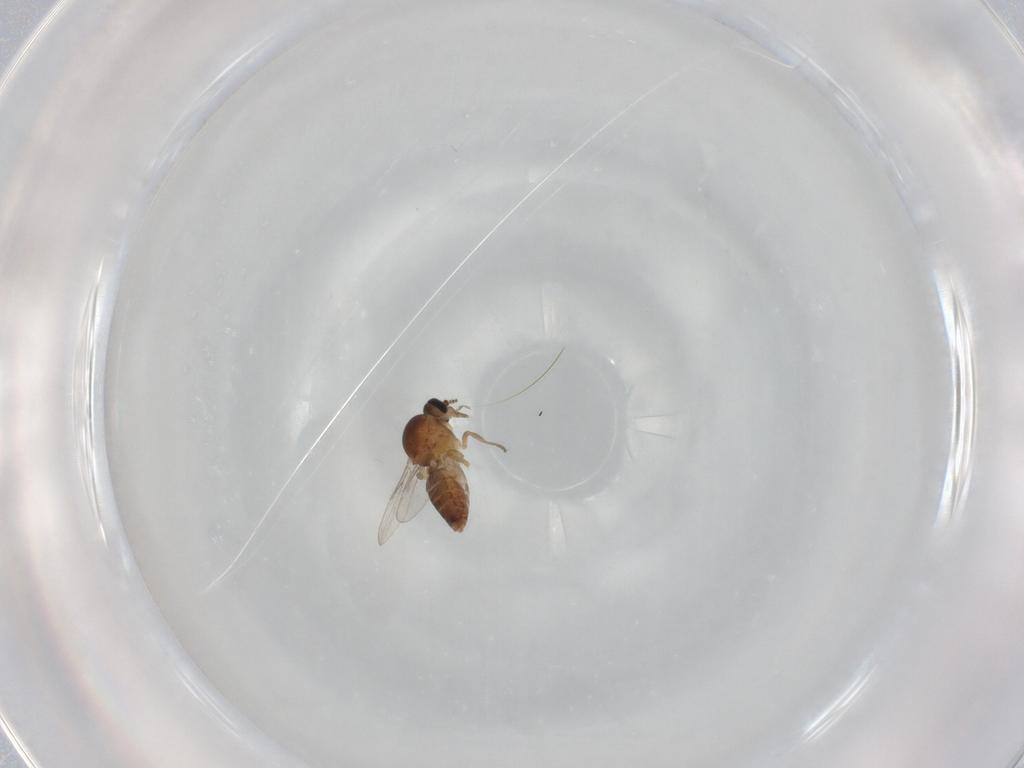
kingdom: Animalia
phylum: Arthropoda
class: Insecta
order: Diptera
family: Ceratopogonidae
